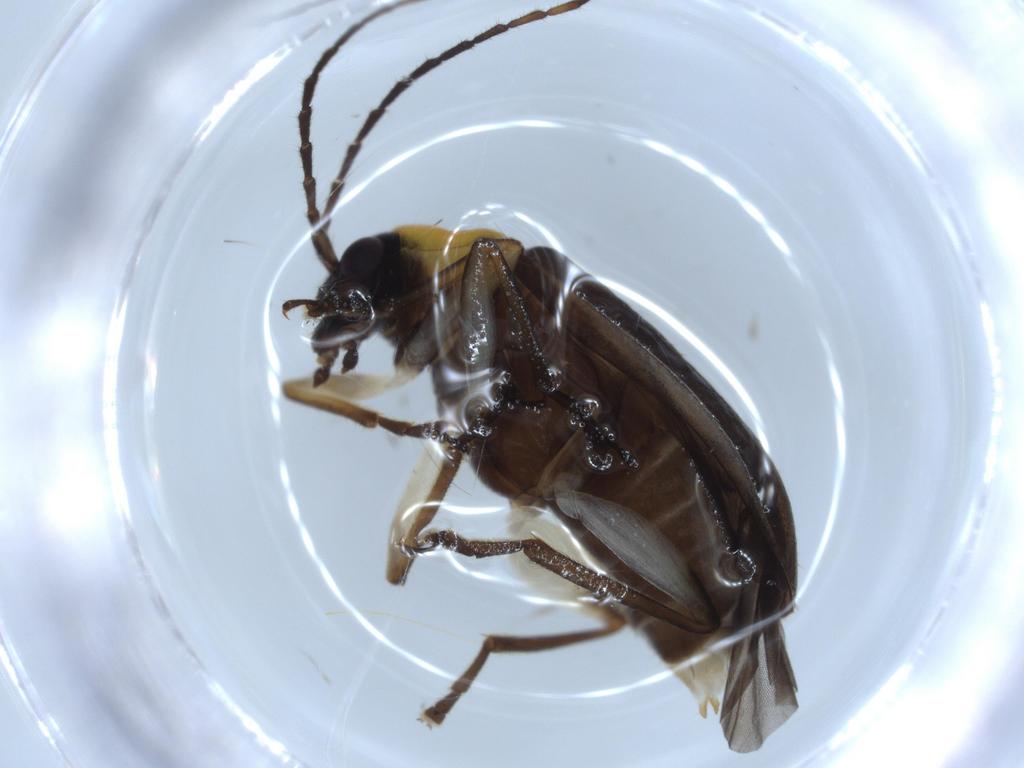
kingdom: Animalia
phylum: Arthropoda
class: Insecta
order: Coleoptera
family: Chrysomelidae
